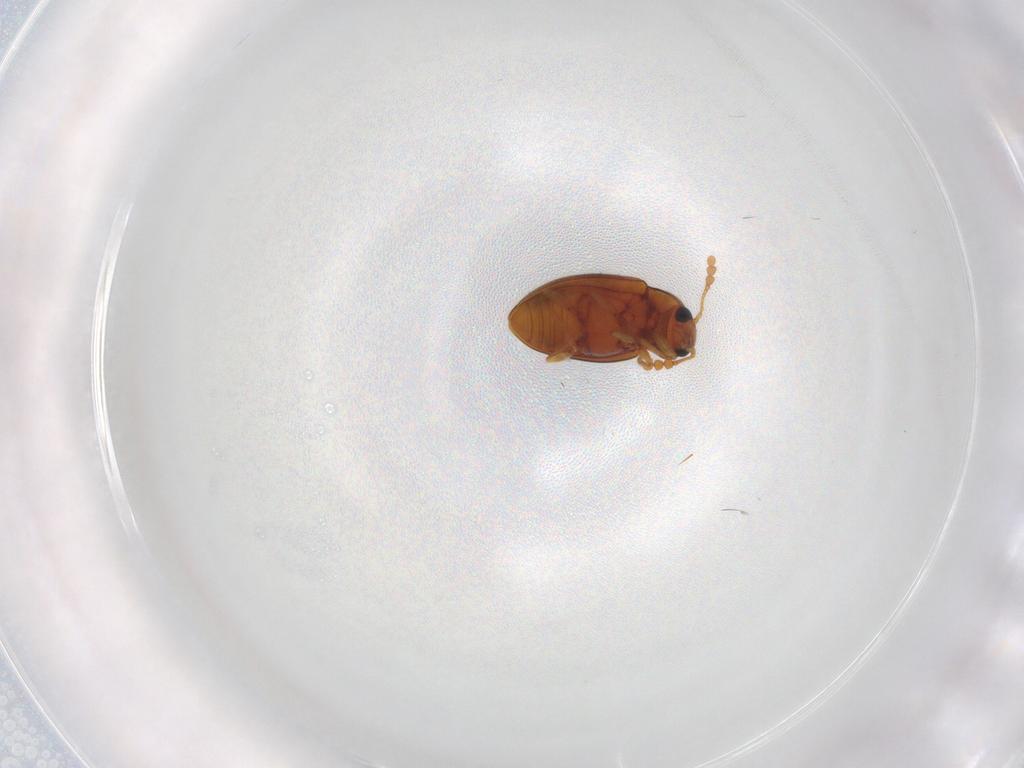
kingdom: Animalia
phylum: Arthropoda
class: Insecta
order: Coleoptera
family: Erotylidae
